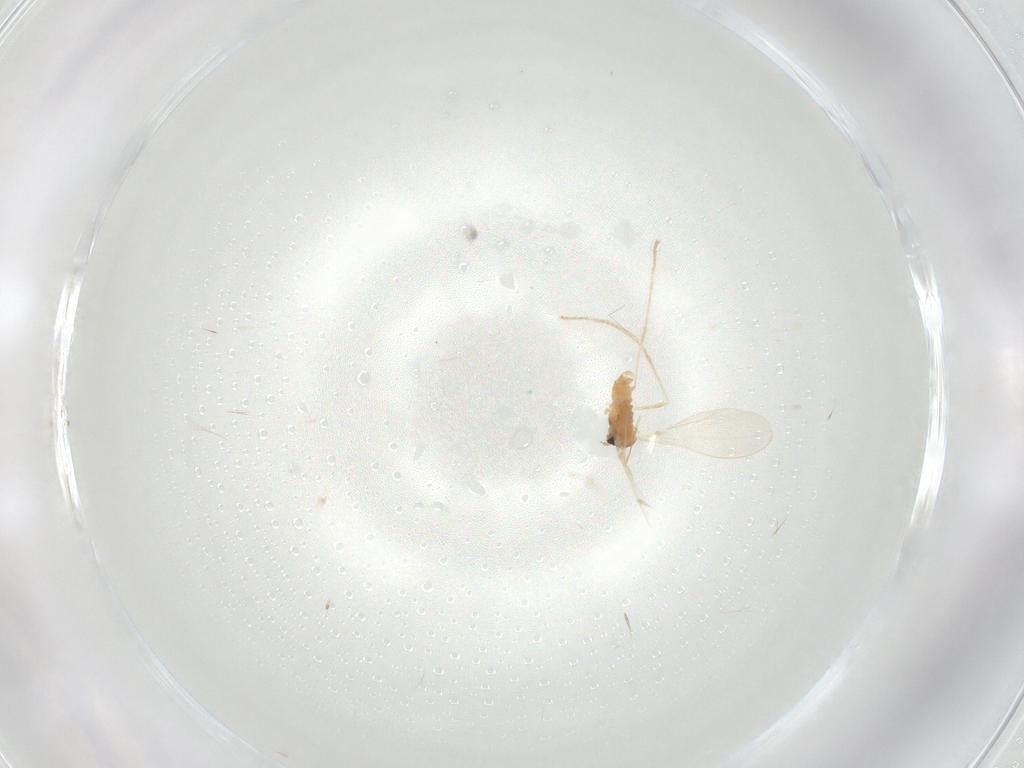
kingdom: Animalia
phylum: Arthropoda
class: Insecta
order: Diptera
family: Cecidomyiidae
